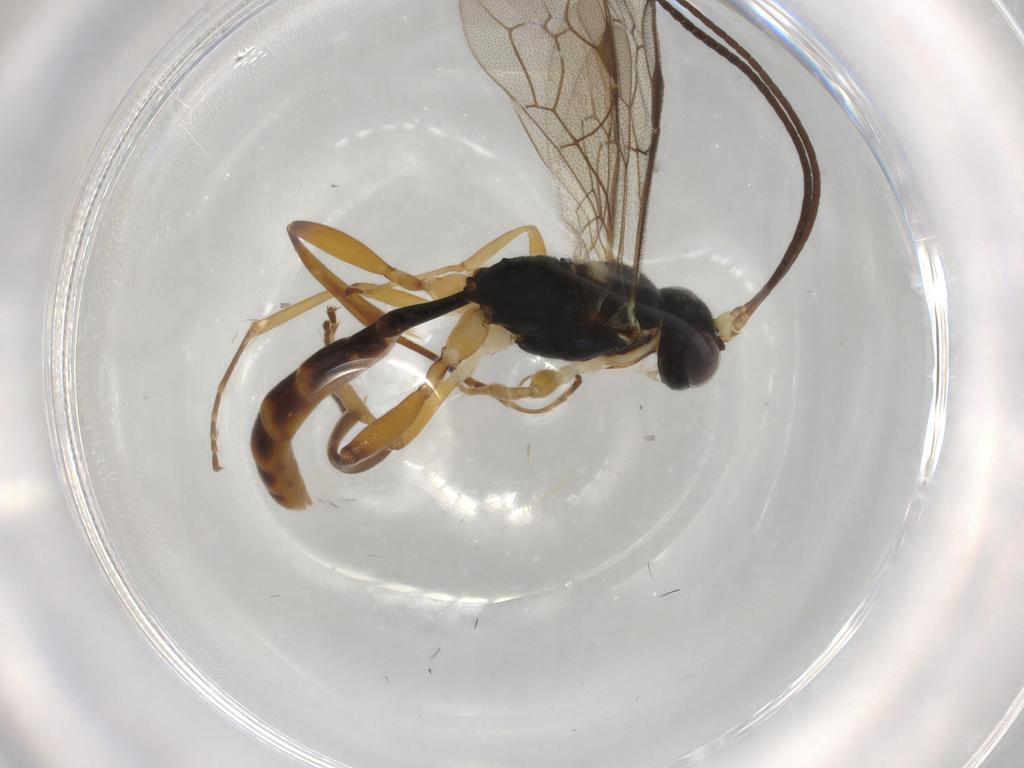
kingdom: Animalia
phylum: Arthropoda
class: Insecta
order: Hymenoptera
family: Ichneumonidae
